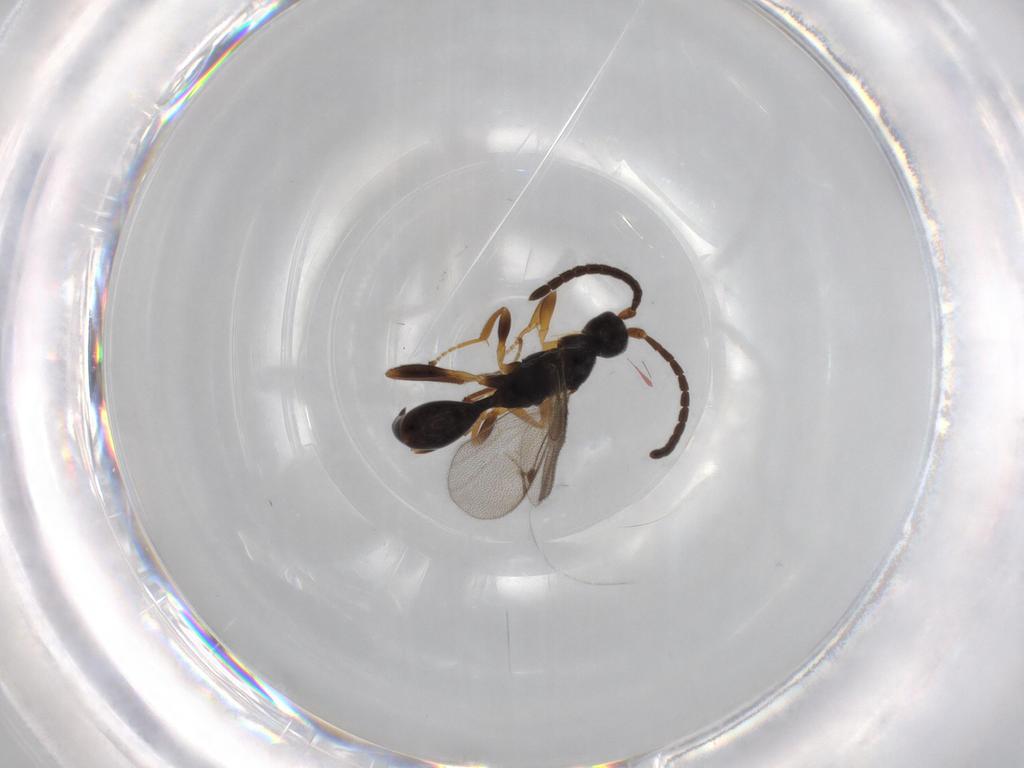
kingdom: Animalia
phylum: Arthropoda
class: Insecta
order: Hymenoptera
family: Proctotrupidae
